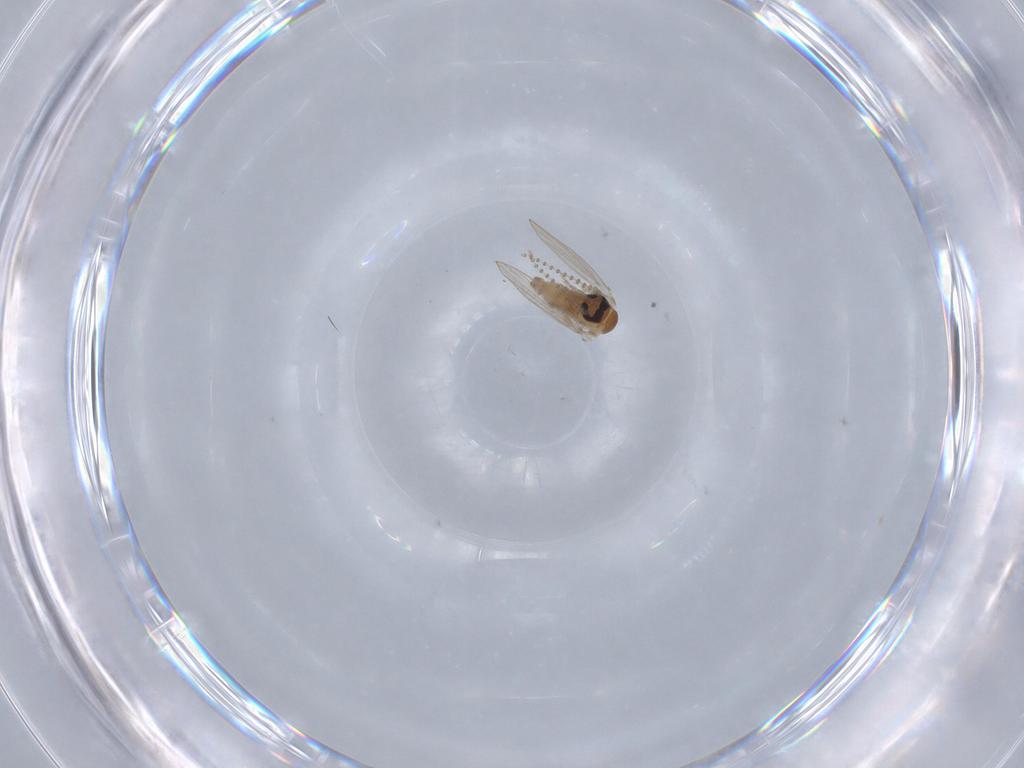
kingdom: Animalia
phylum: Arthropoda
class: Insecta
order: Diptera
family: Psychodidae
